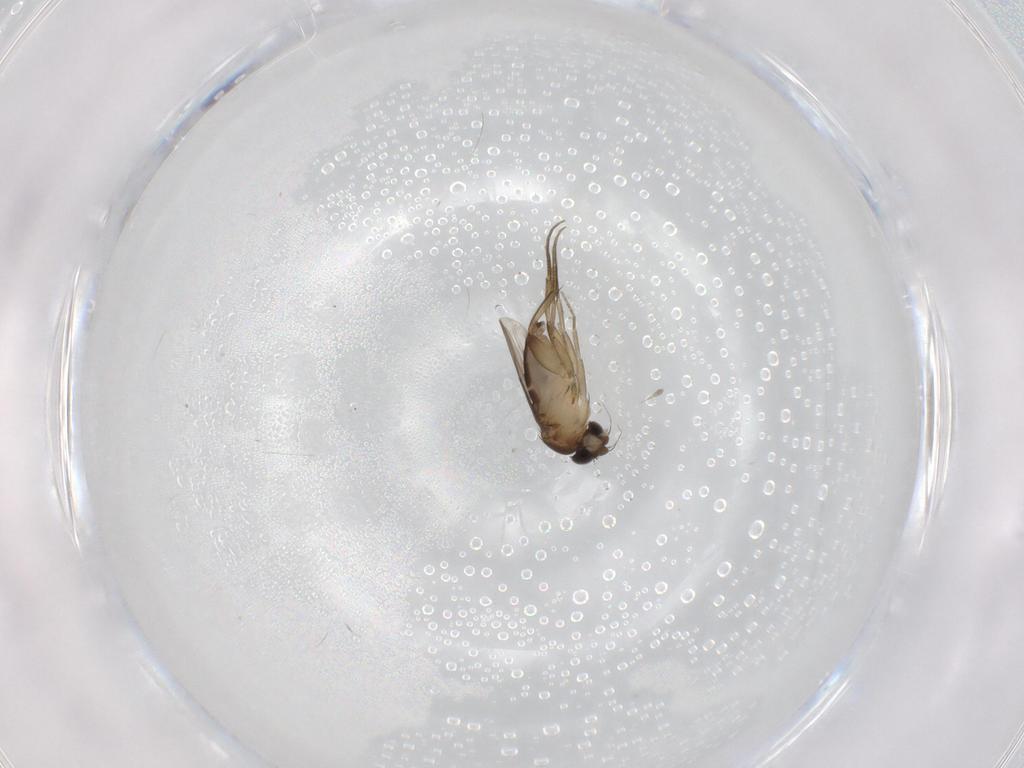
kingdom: Animalia
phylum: Arthropoda
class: Insecta
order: Diptera
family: Phoridae
